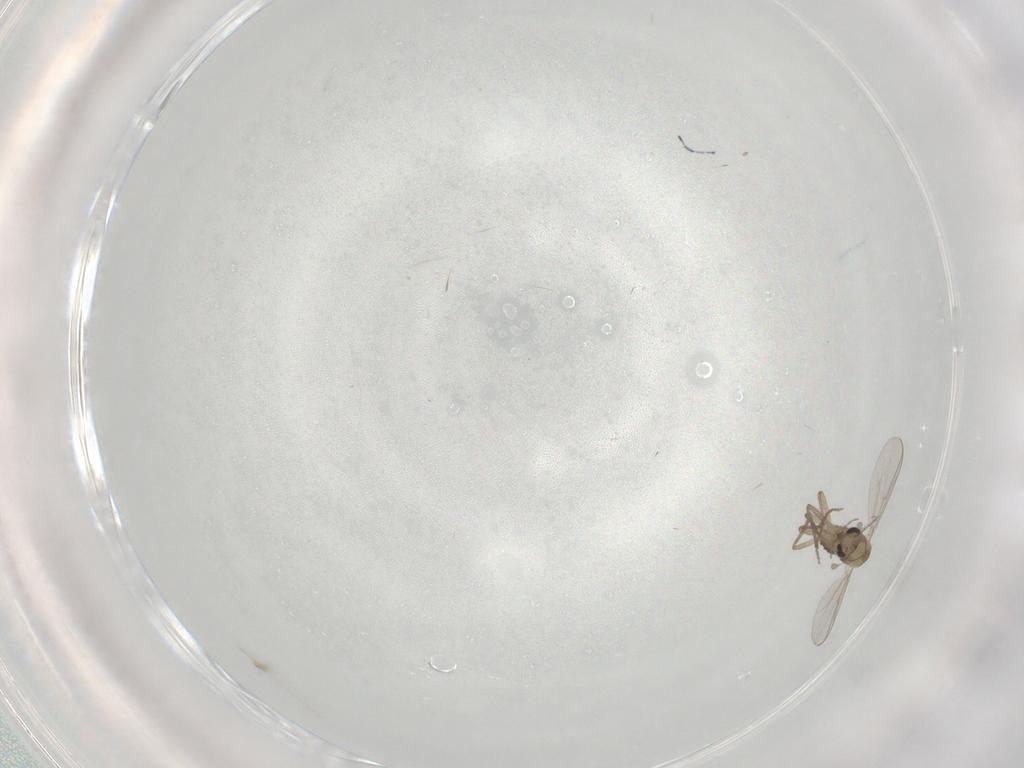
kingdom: Animalia
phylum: Arthropoda
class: Insecta
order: Diptera
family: Chironomidae
